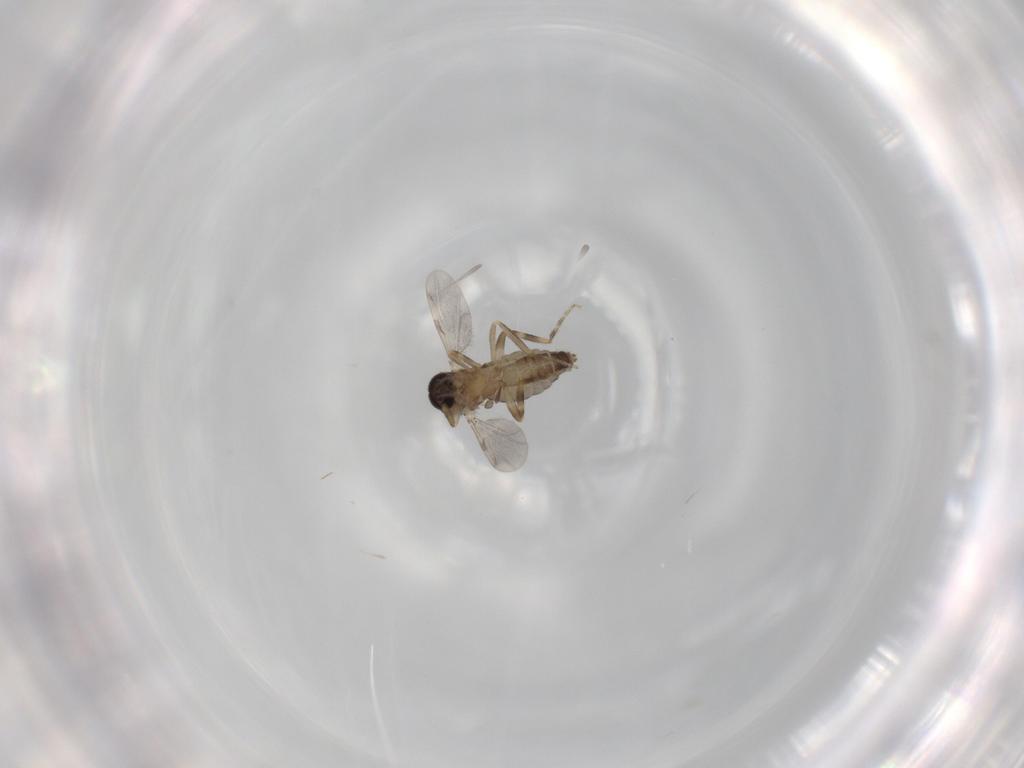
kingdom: Animalia
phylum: Arthropoda
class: Insecta
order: Diptera
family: Ceratopogonidae
